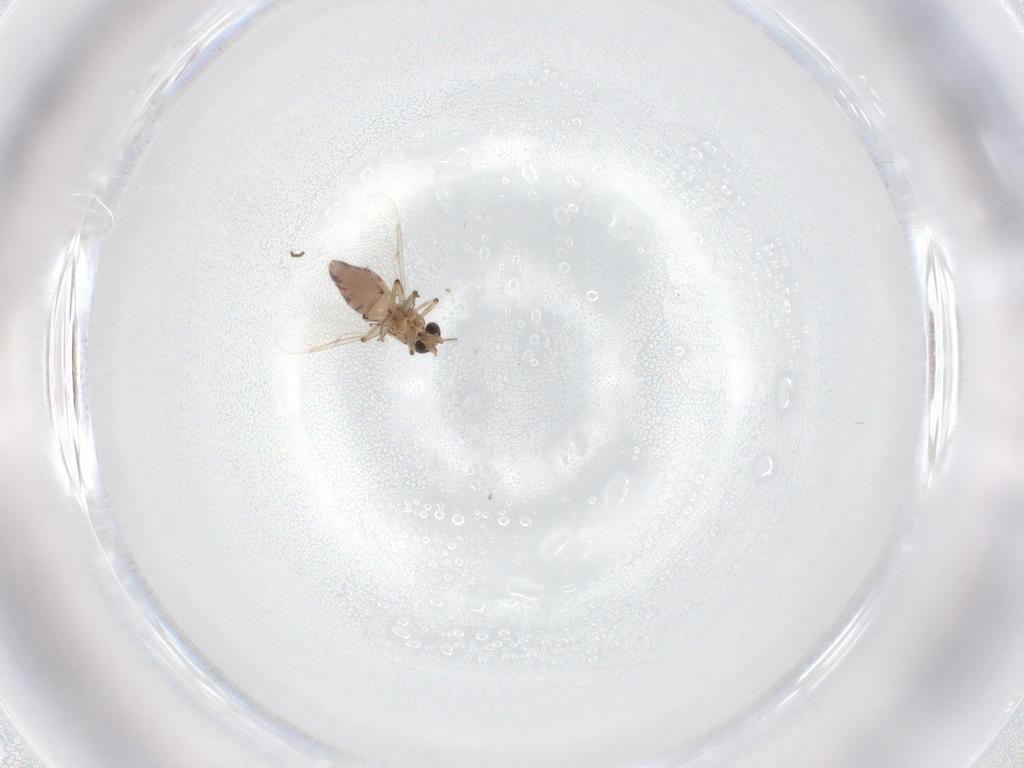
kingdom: Animalia
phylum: Arthropoda
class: Insecta
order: Diptera
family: Ceratopogonidae
